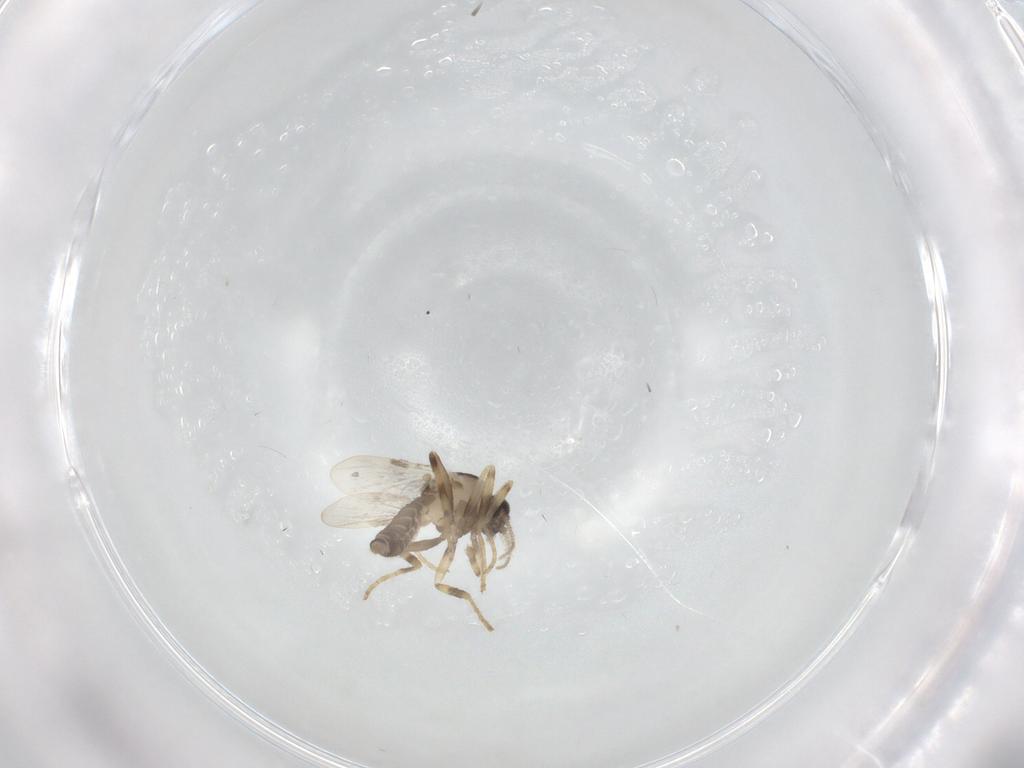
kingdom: Animalia
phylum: Arthropoda
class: Insecta
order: Diptera
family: Ceratopogonidae
